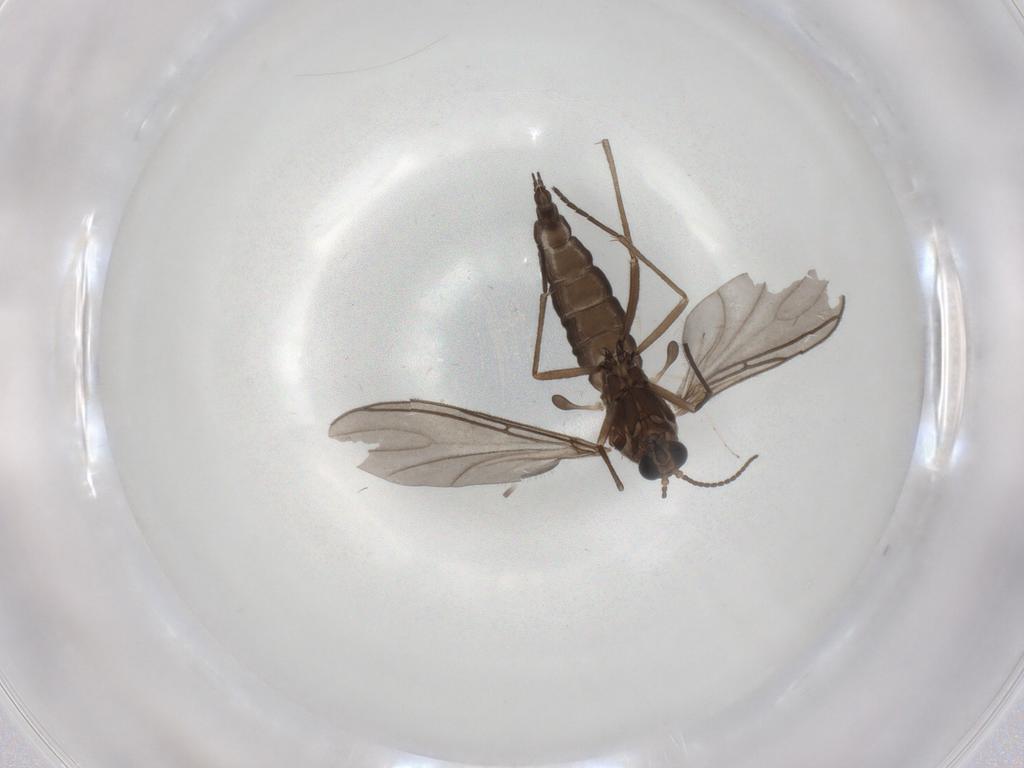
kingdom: Animalia
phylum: Arthropoda
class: Insecta
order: Diptera
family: Sciaridae
